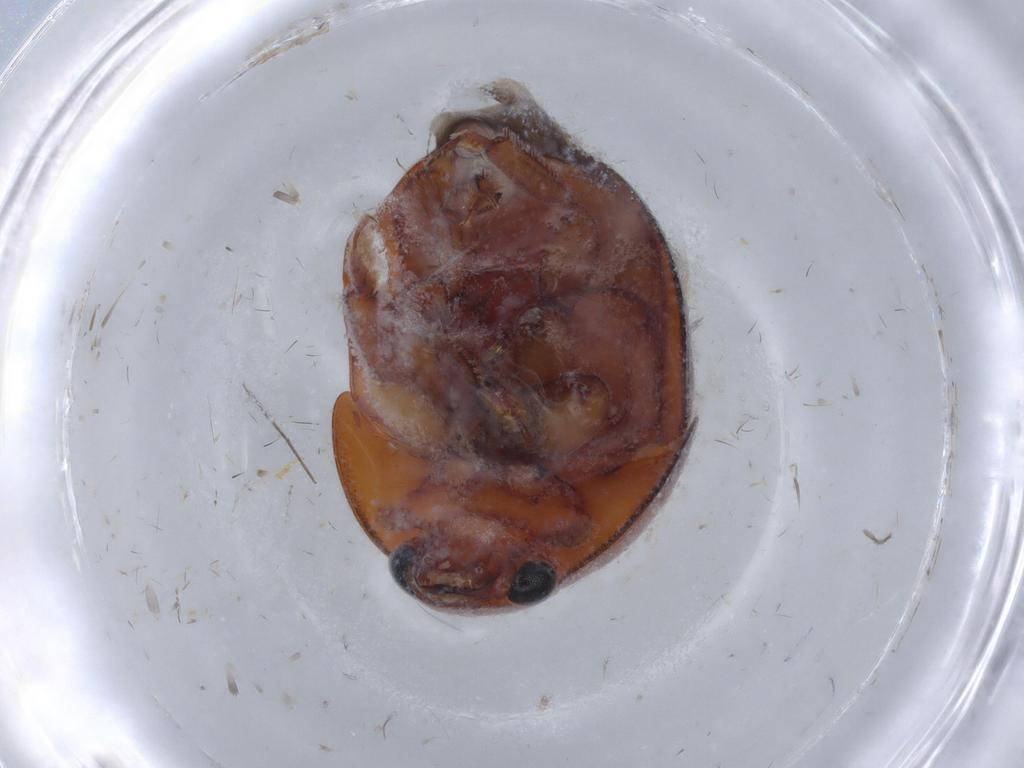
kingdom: Animalia
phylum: Arthropoda
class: Insecta
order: Coleoptera
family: Nitidulidae
